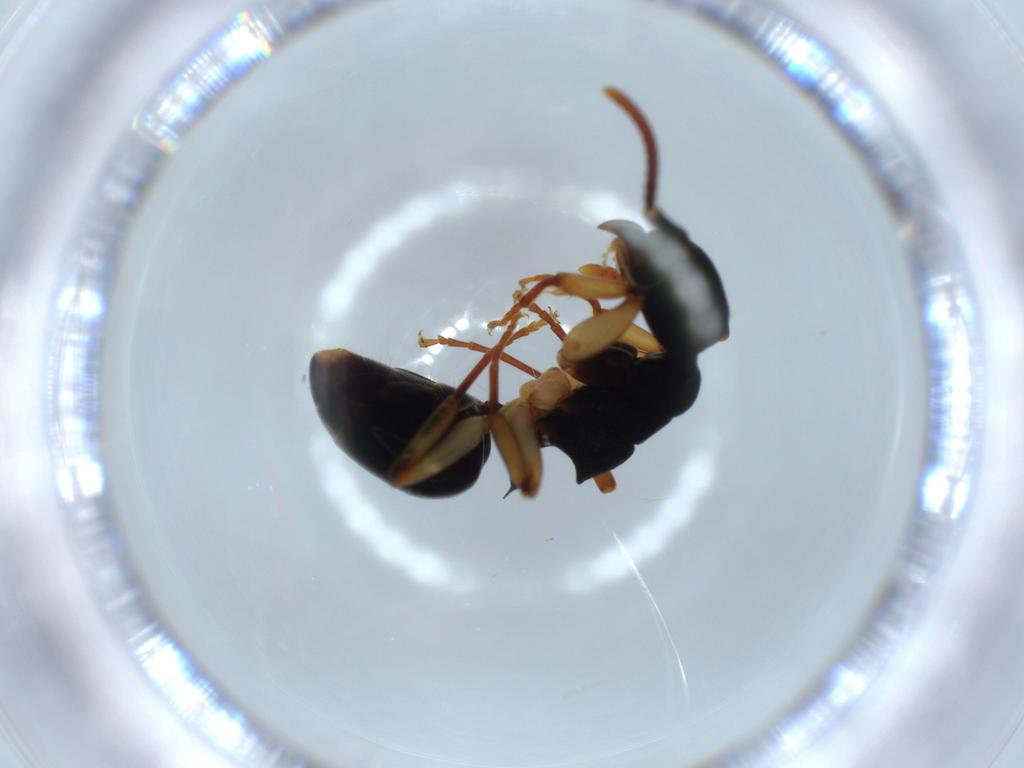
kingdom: Animalia
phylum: Arthropoda
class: Insecta
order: Hymenoptera
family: Formicidae
